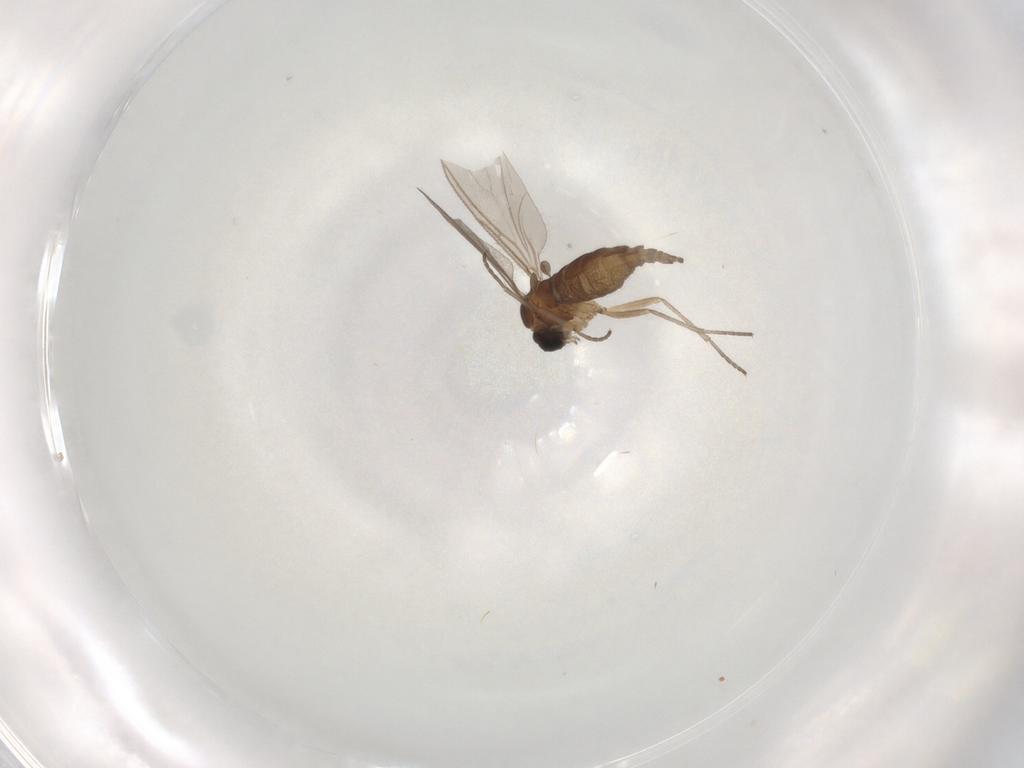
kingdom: Animalia
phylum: Arthropoda
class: Insecta
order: Diptera
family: Sciaridae
